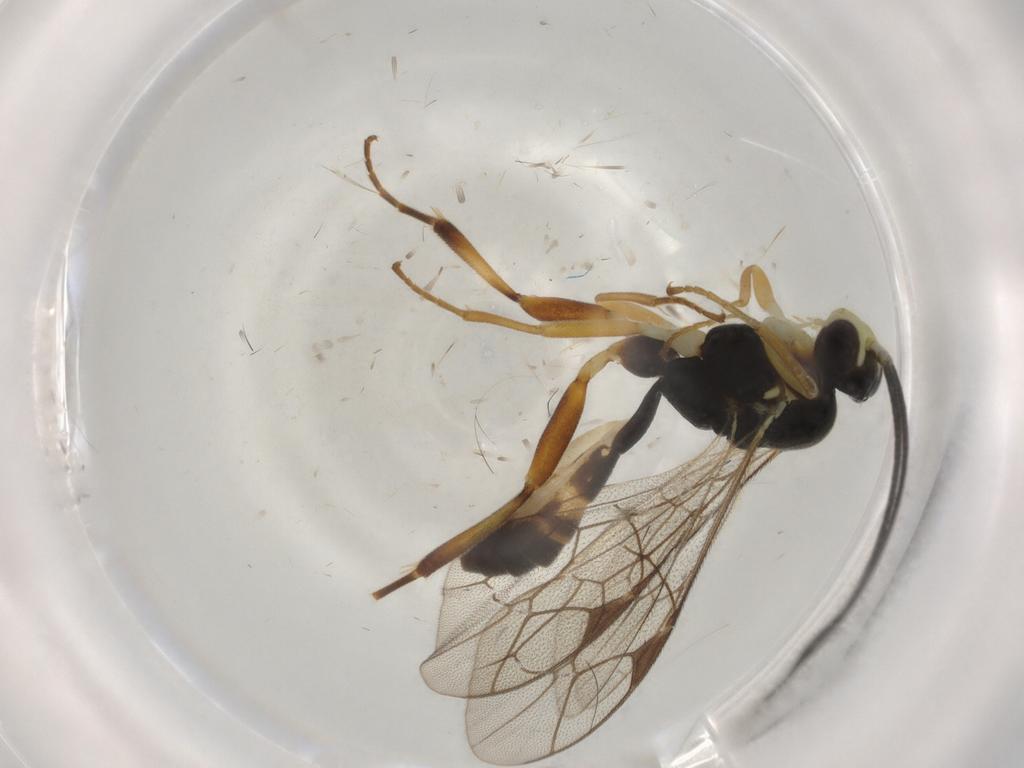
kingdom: Animalia
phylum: Arthropoda
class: Insecta
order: Hymenoptera
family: Ichneumonidae
